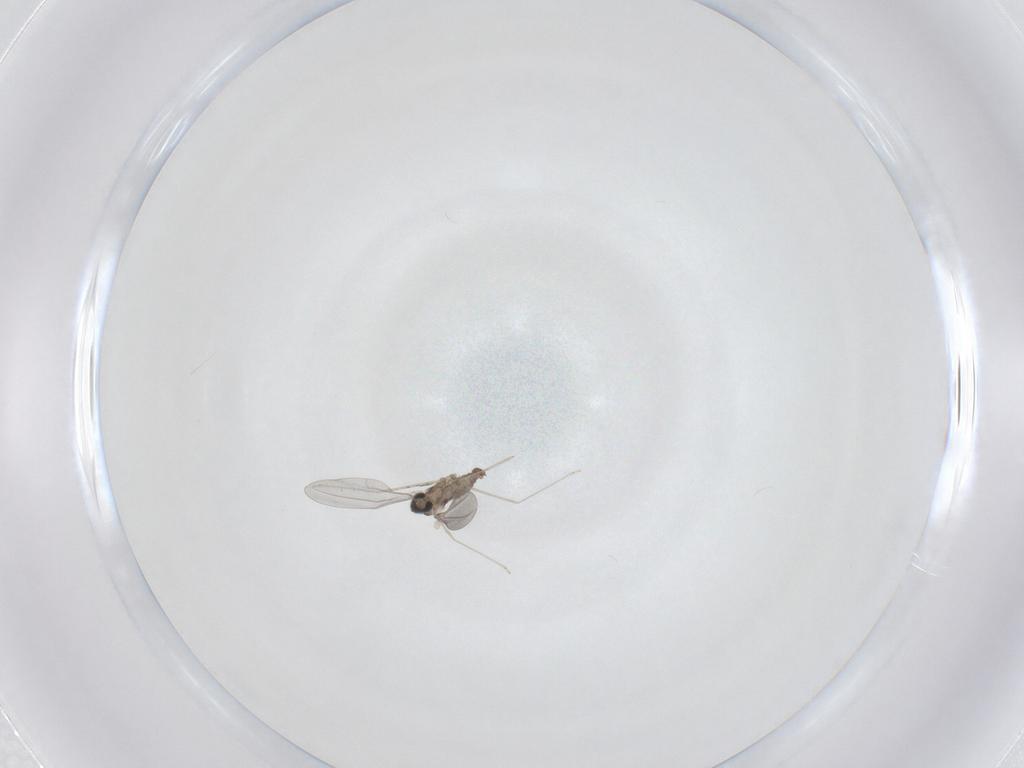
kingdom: Animalia
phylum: Arthropoda
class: Insecta
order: Diptera
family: Cecidomyiidae
